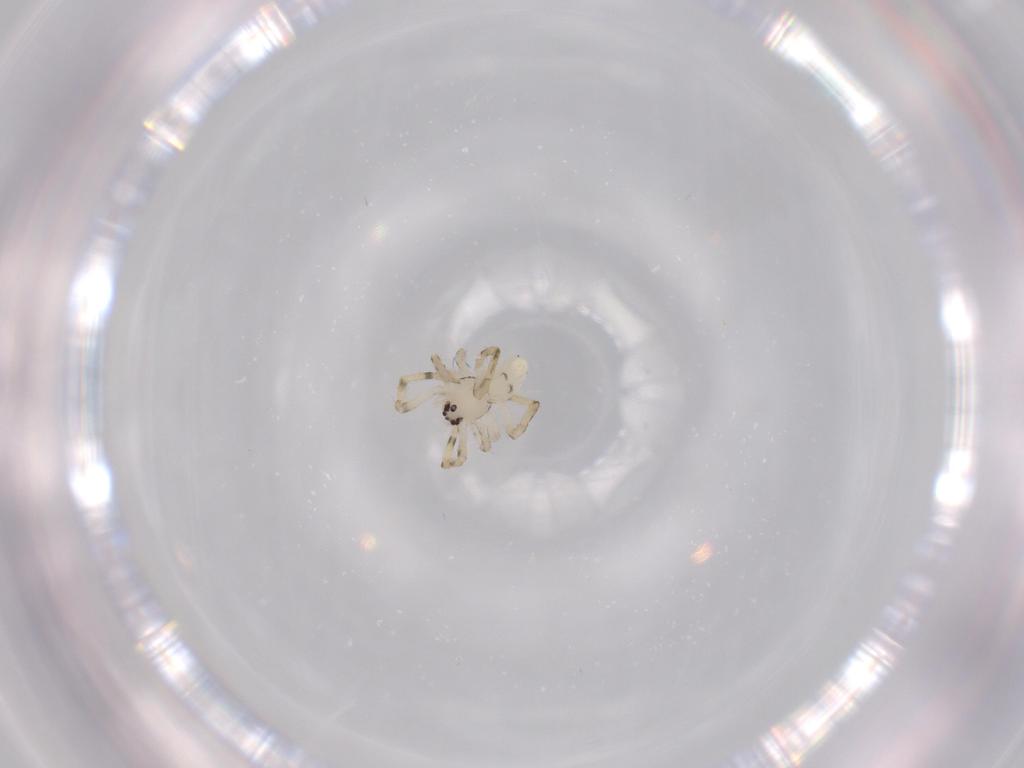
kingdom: Animalia
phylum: Arthropoda
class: Arachnida
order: Araneae
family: Theridiidae
